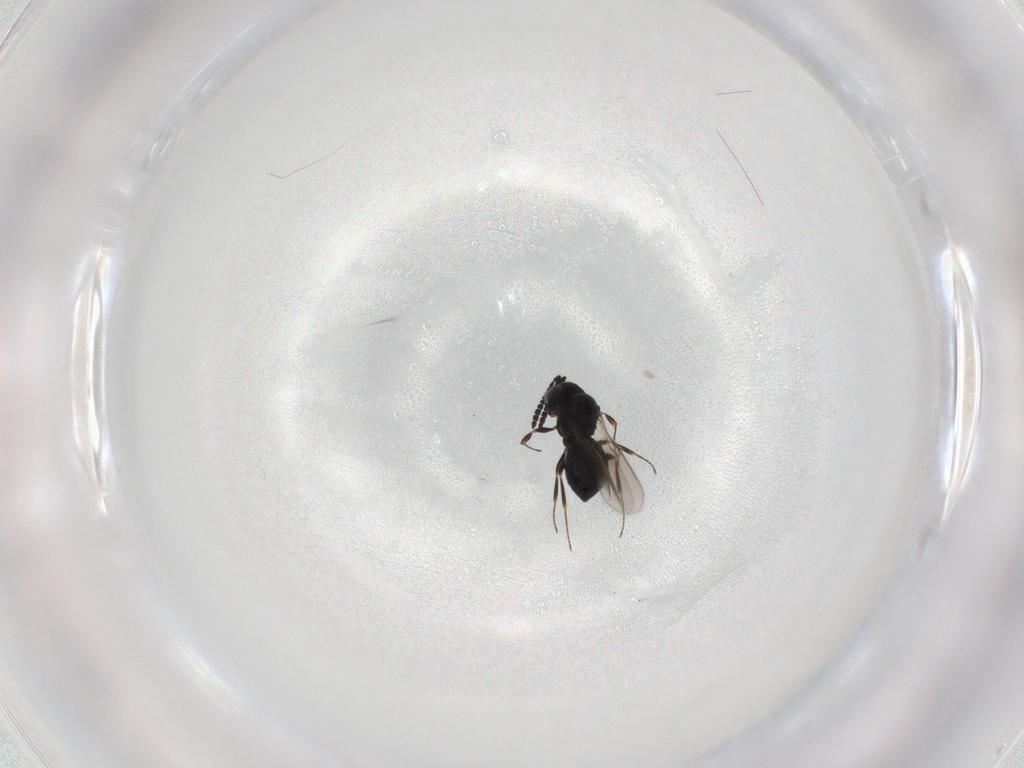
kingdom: Animalia
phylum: Arthropoda
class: Insecta
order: Hymenoptera
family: Scelionidae
